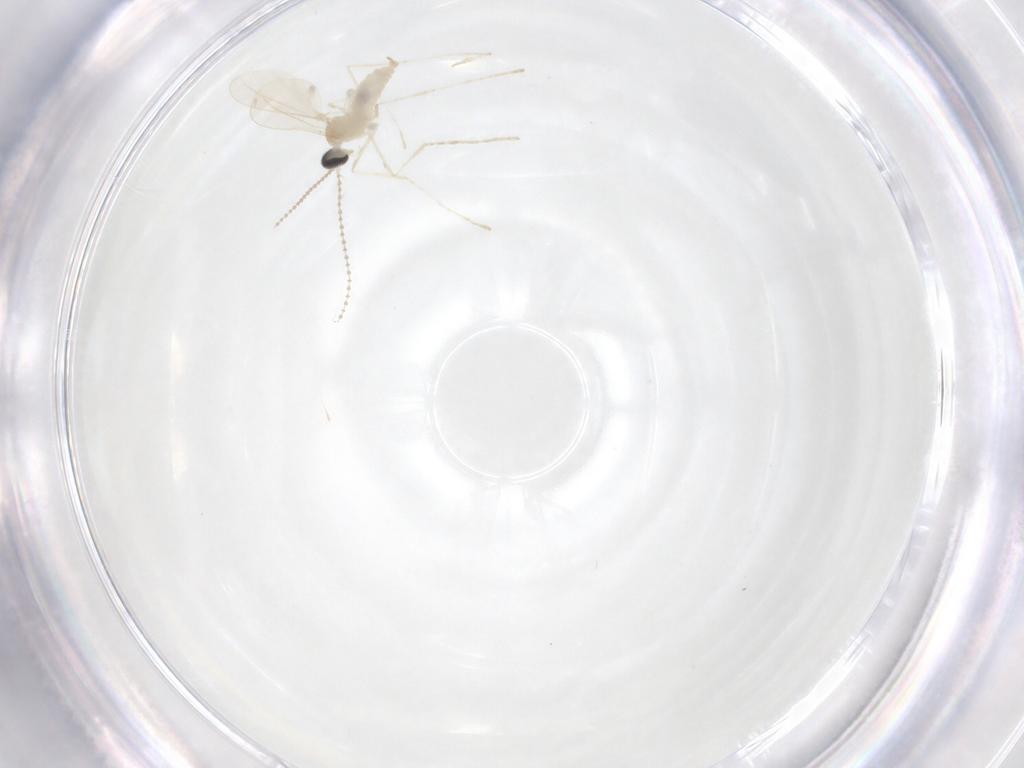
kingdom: Animalia
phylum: Arthropoda
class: Insecta
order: Diptera
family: Cecidomyiidae
